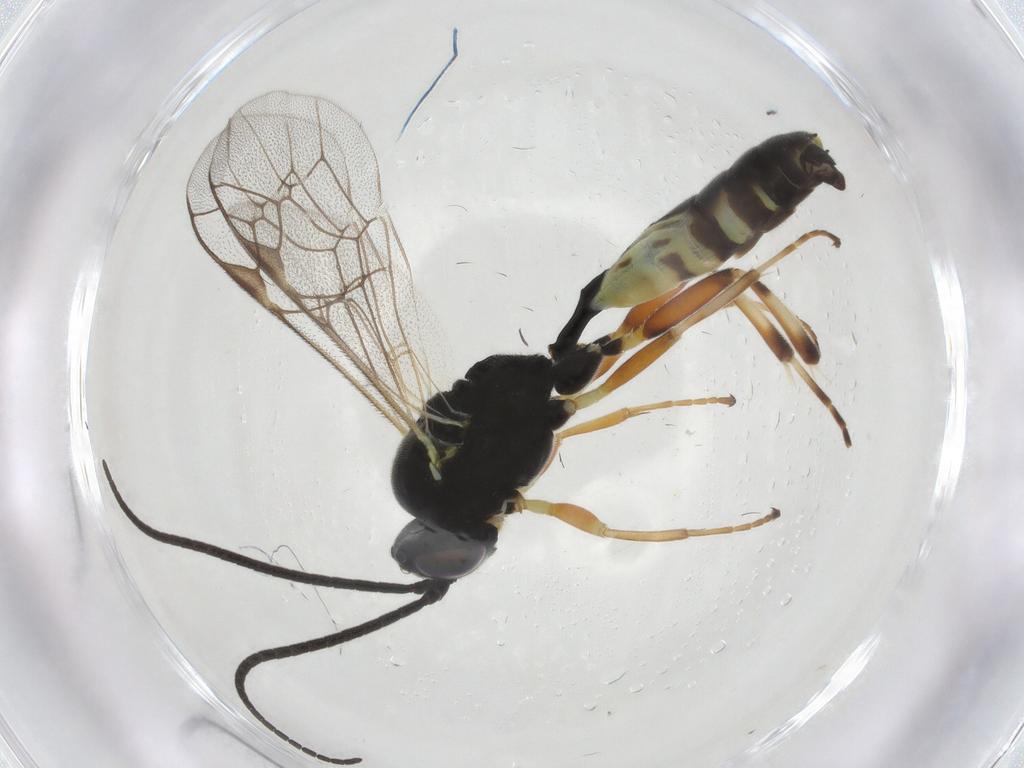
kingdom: Animalia
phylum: Arthropoda
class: Insecta
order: Hymenoptera
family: Ichneumonidae
